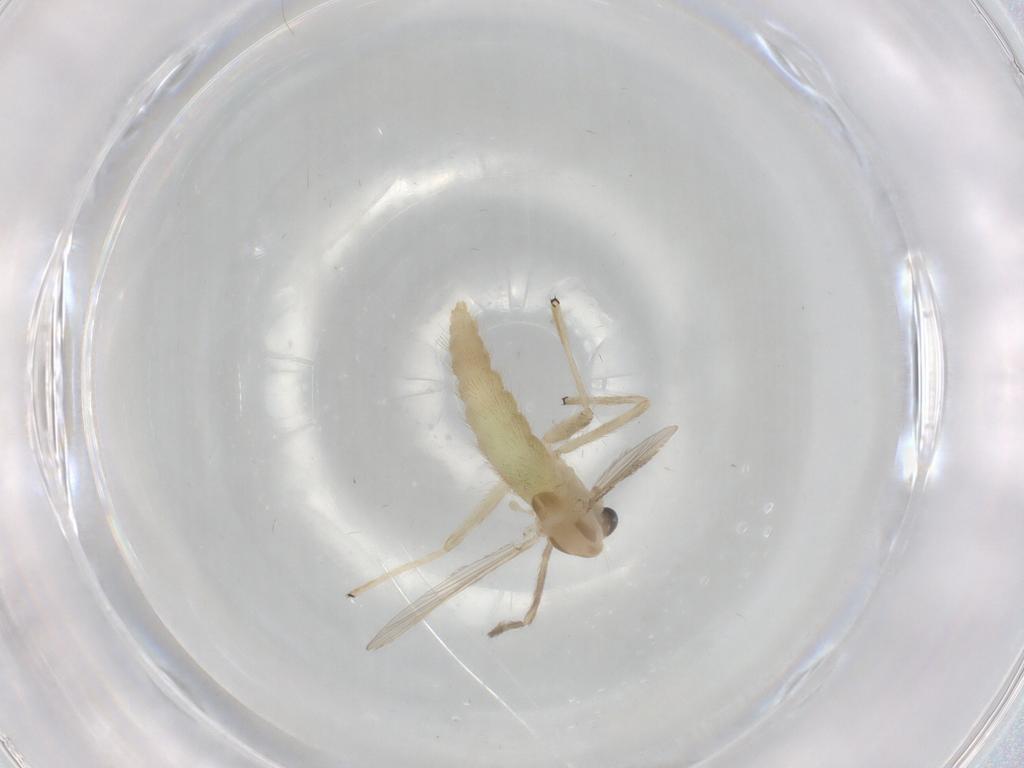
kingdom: Animalia
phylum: Arthropoda
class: Insecta
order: Diptera
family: Chironomidae
